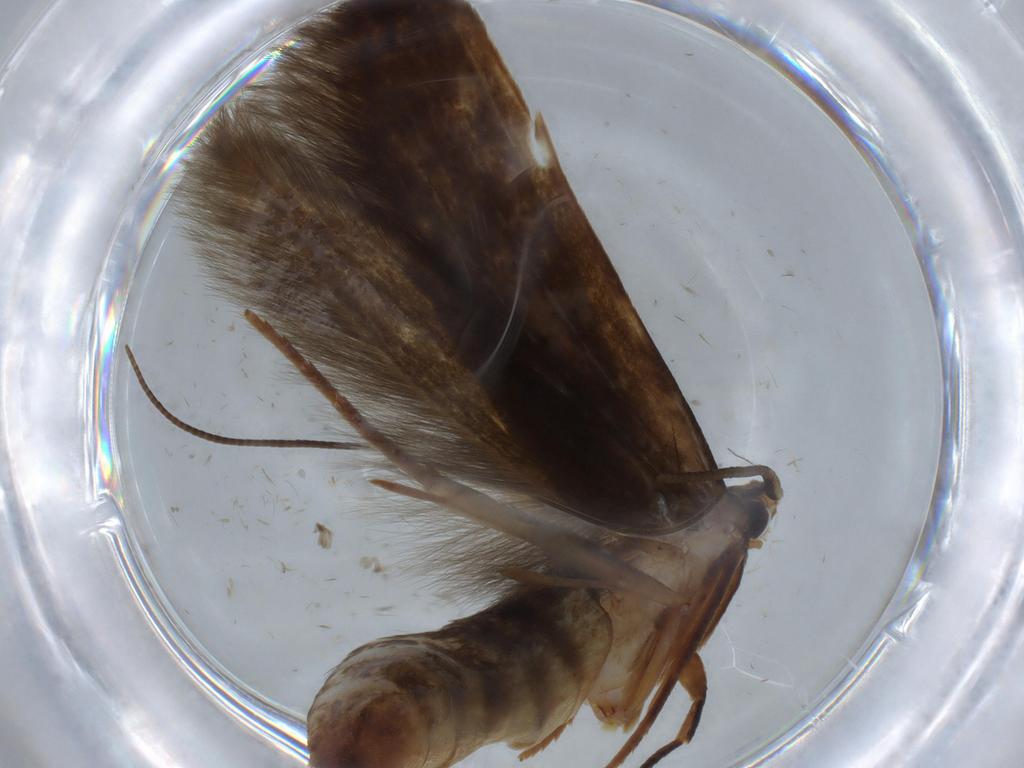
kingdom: Animalia
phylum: Arthropoda
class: Insecta
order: Lepidoptera
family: Tineidae
